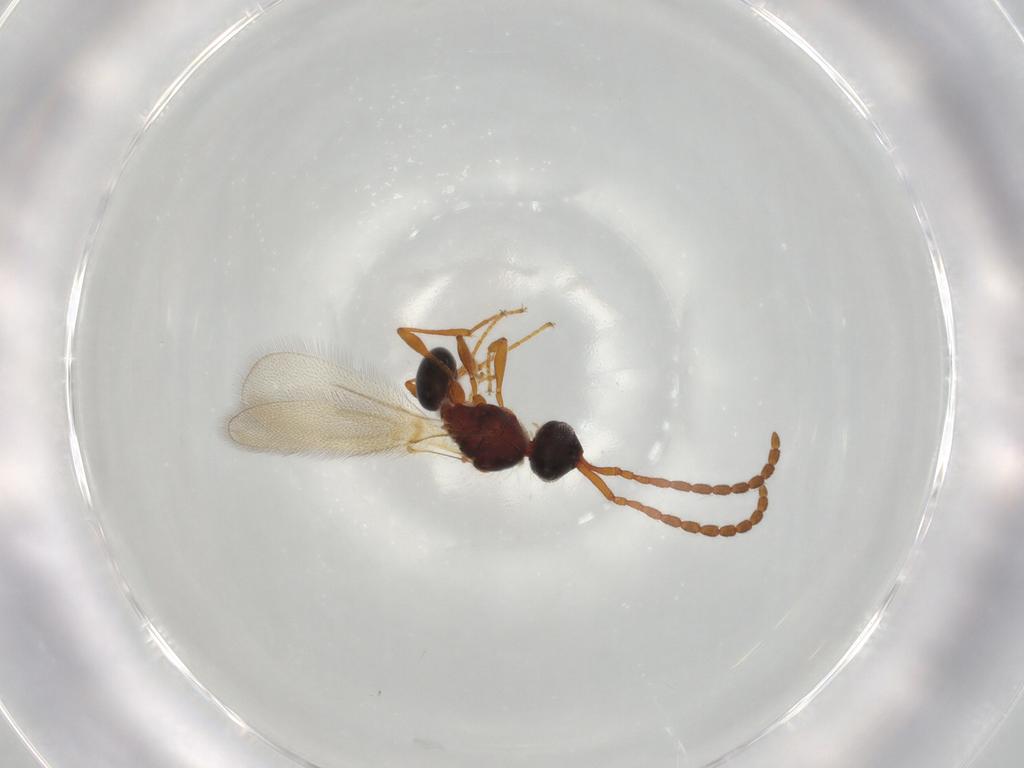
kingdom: Animalia
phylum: Arthropoda
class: Insecta
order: Hymenoptera
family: Diapriidae
